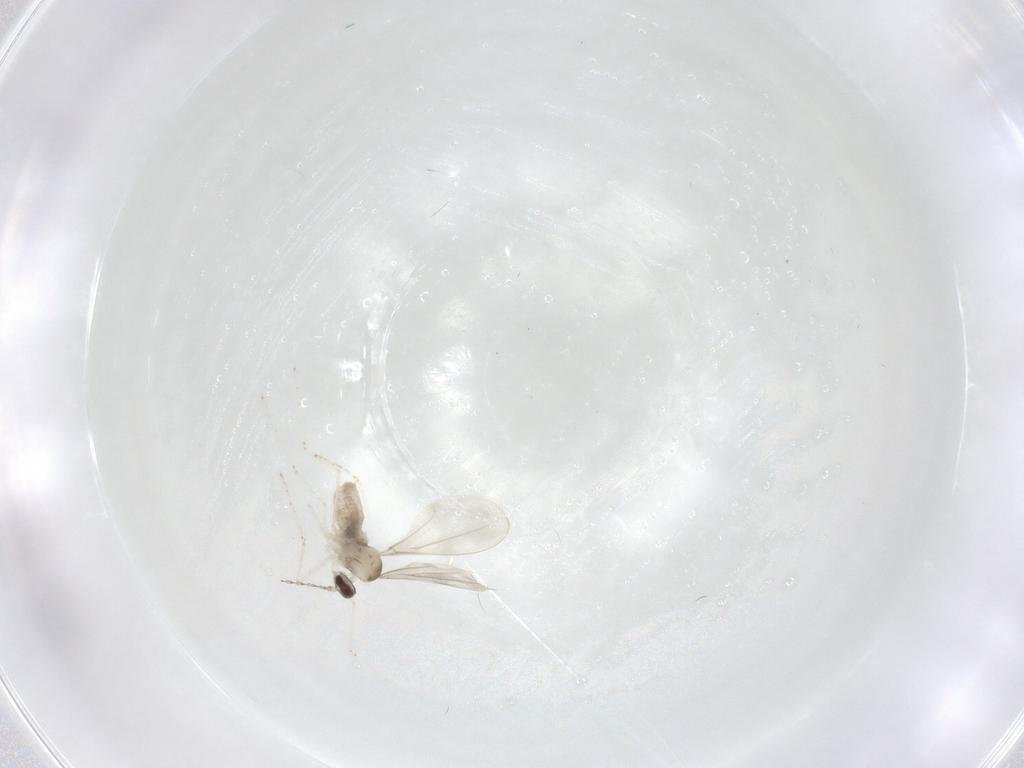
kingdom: Animalia
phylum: Arthropoda
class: Insecta
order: Diptera
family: Cecidomyiidae
